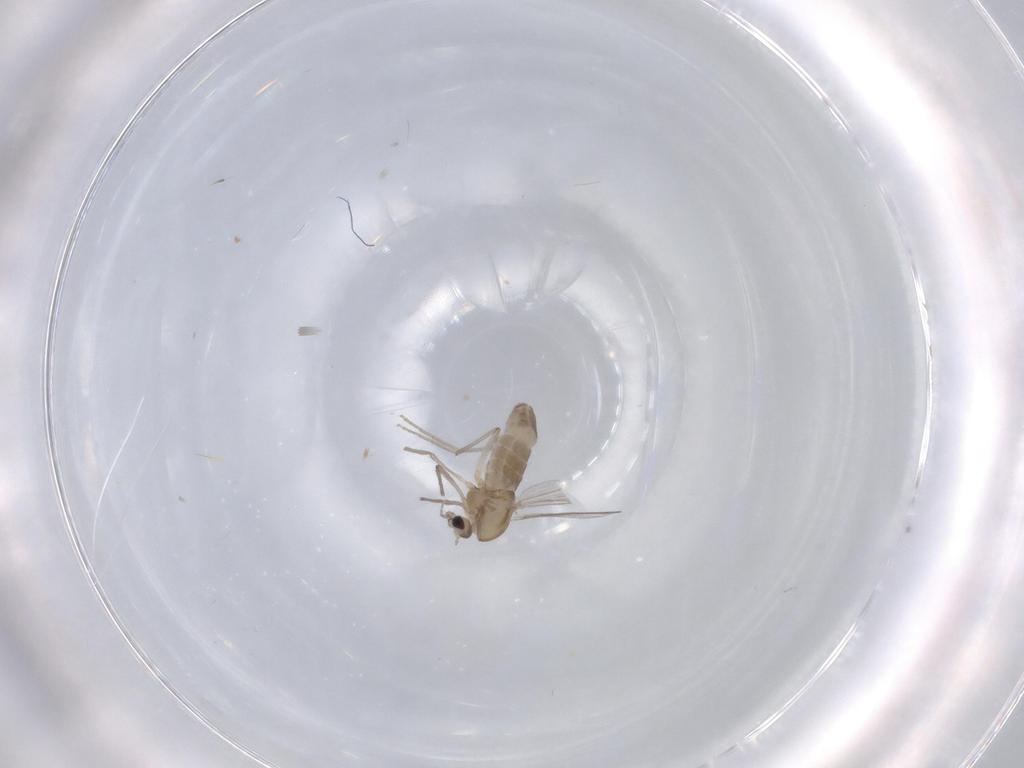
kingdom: Animalia
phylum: Arthropoda
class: Insecta
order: Diptera
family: Chironomidae
